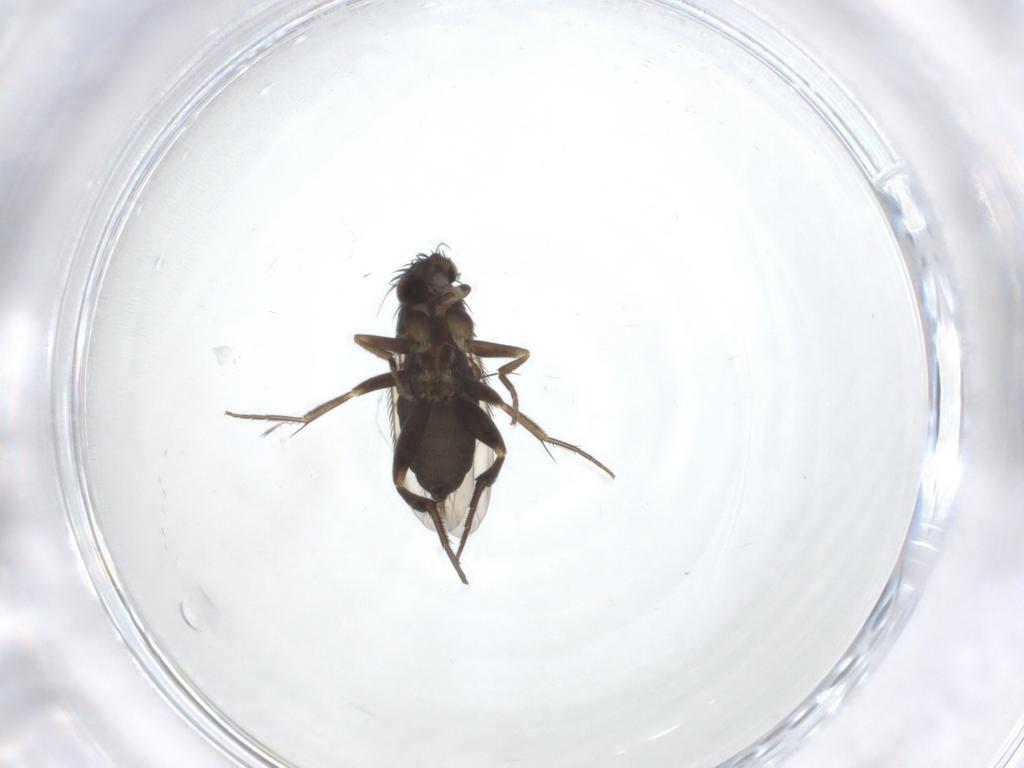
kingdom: Animalia
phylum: Arthropoda
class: Insecta
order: Diptera
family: Phoridae
